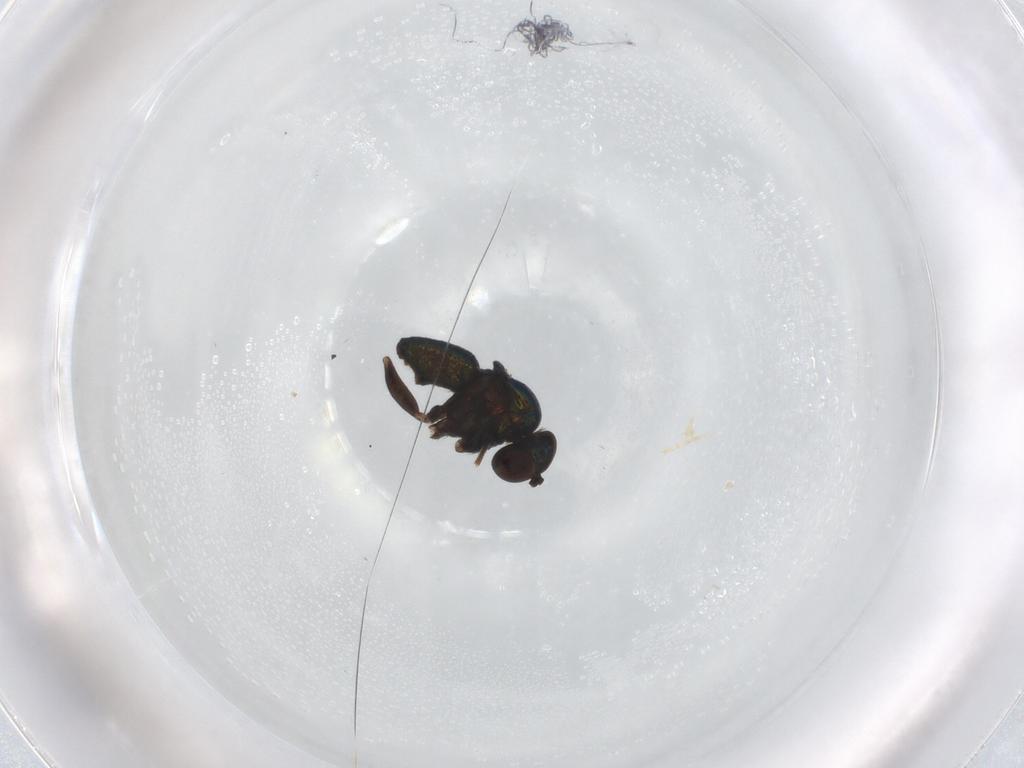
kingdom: Animalia
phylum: Arthropoda
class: Insecta
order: Diptera
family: Dolichopodidae
